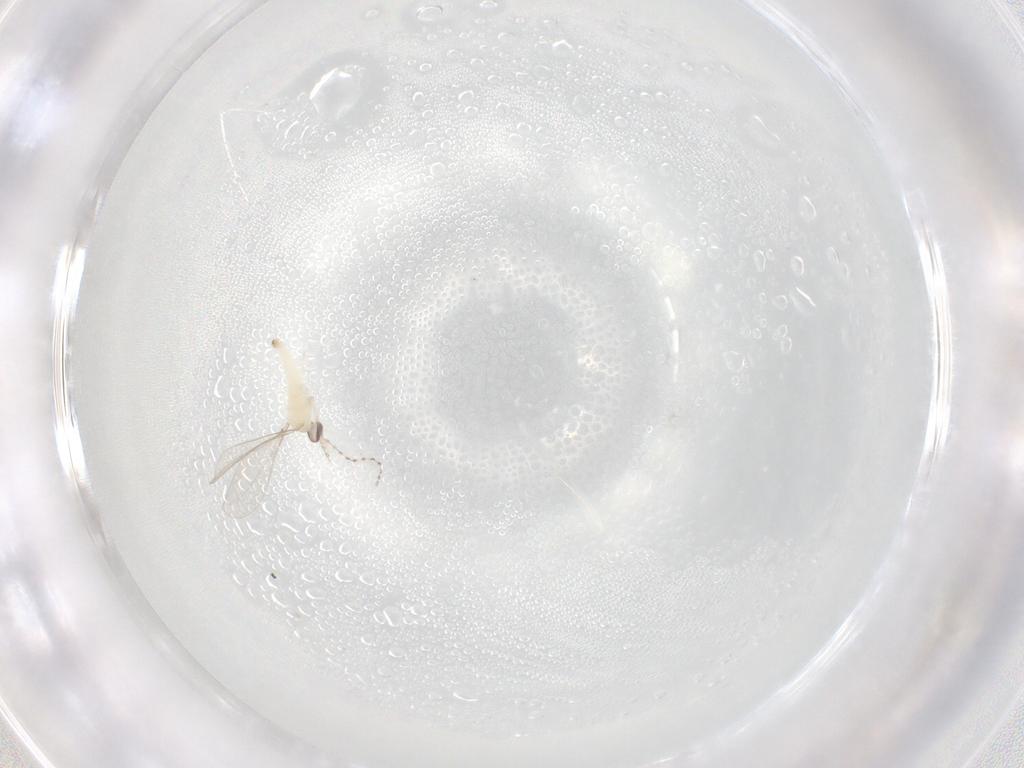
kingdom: Animalia
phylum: Arthropoda
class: Insecta
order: Diptera
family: Cecidomyiidae
